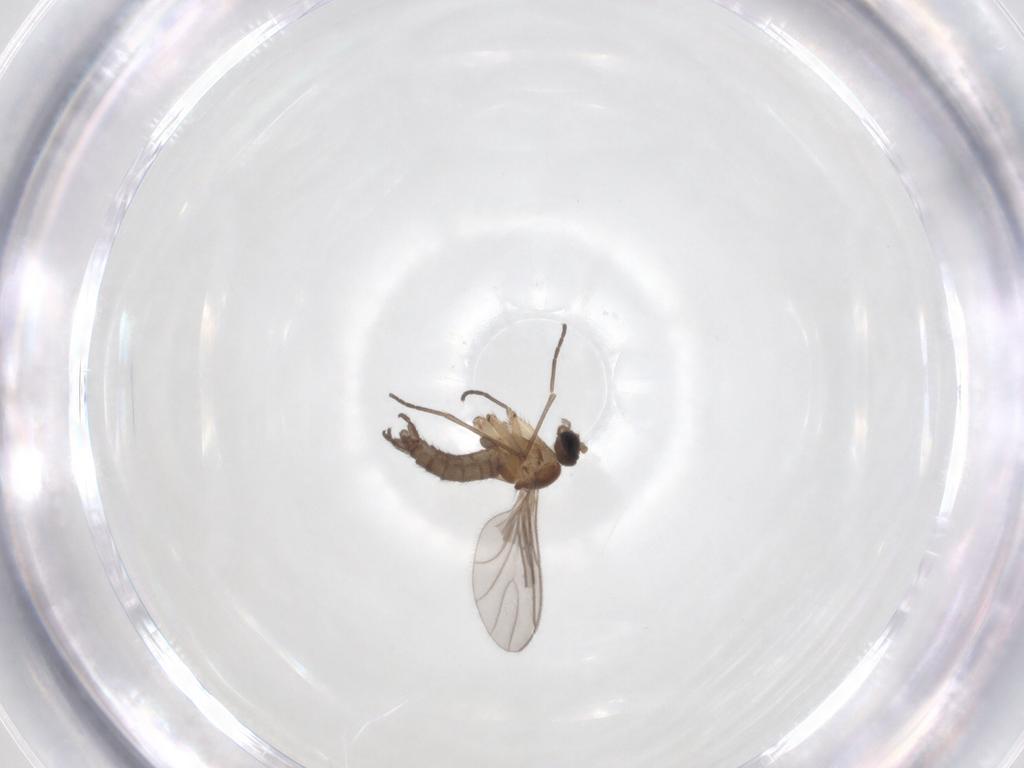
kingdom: Animalia
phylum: Arthropoda
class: Insecta
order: Diptera
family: Sciaridae
